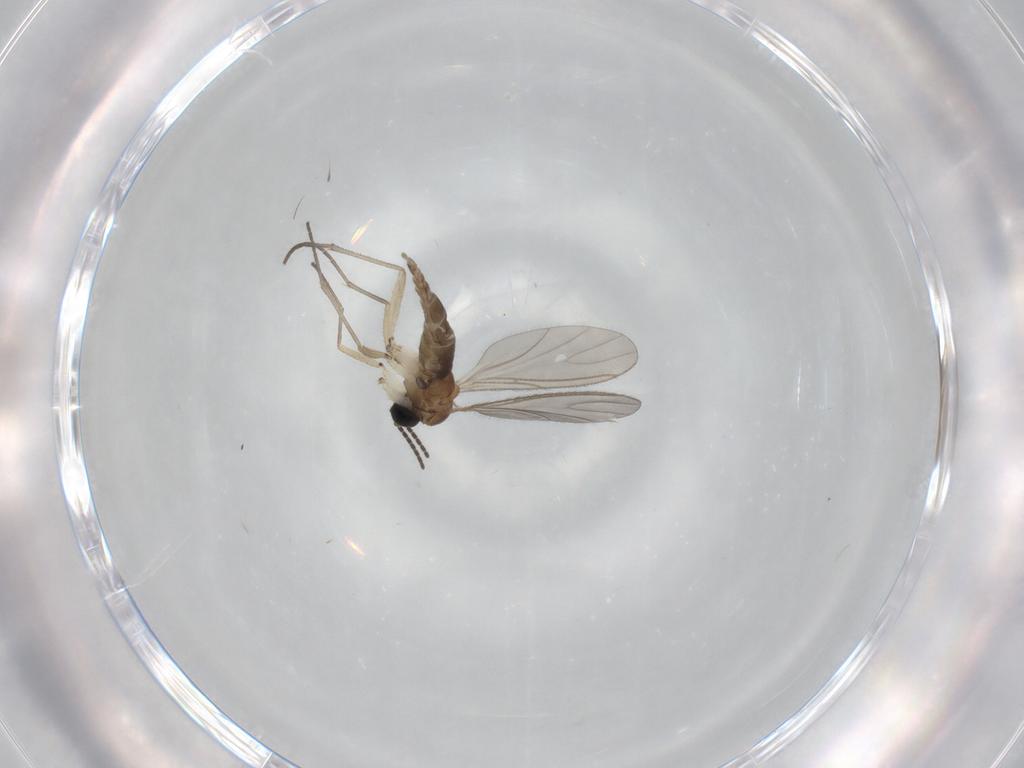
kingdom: Animalia
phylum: Arthropoda
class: Insecta
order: Diptera
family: Sciaridae
